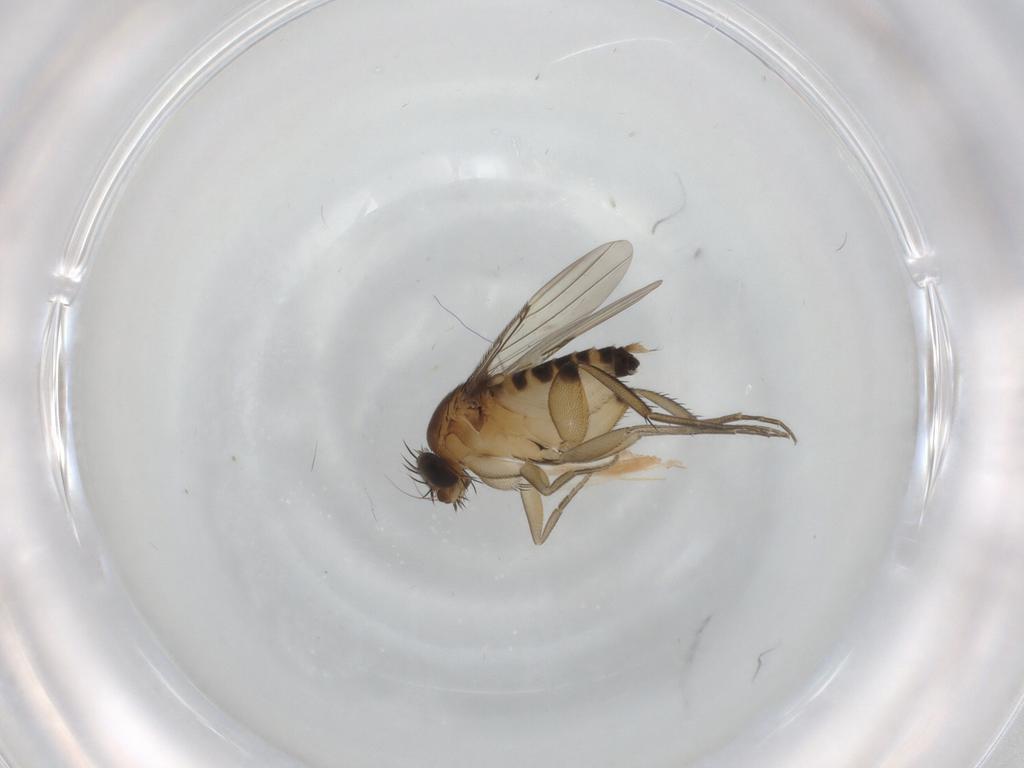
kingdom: Animalia
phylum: Arthropoda
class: Insecta
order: Diptera
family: Phoridae
